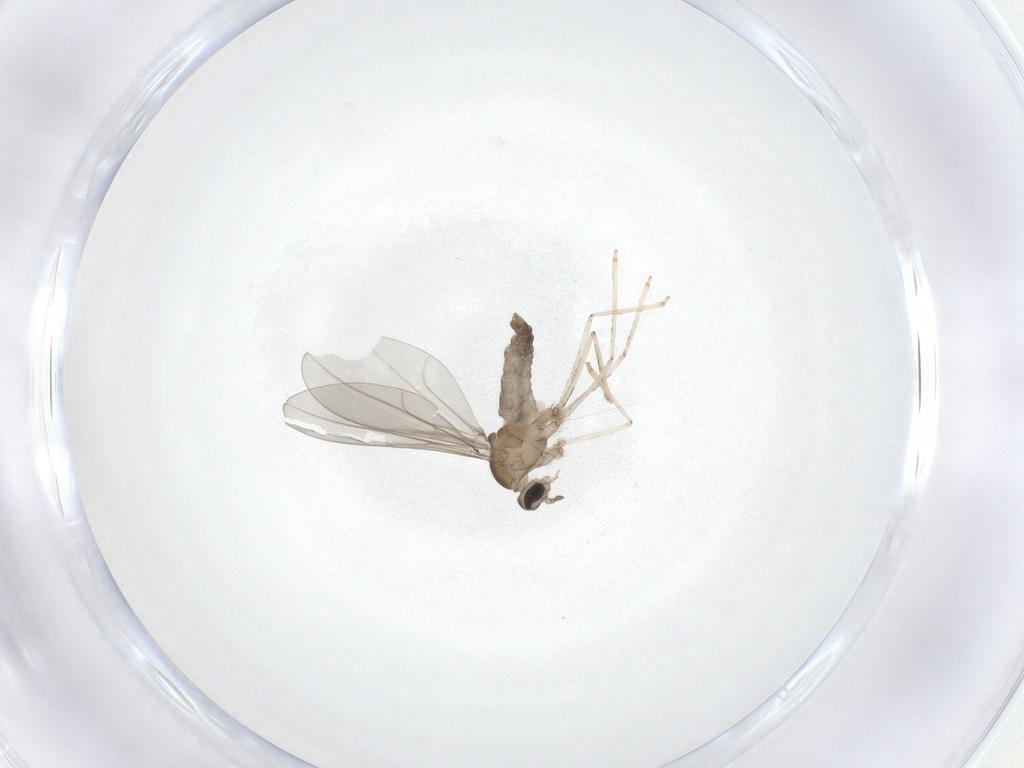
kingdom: Animalia
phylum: Arthropoda
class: Insecta
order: Diptera
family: Cecidomyiidae
